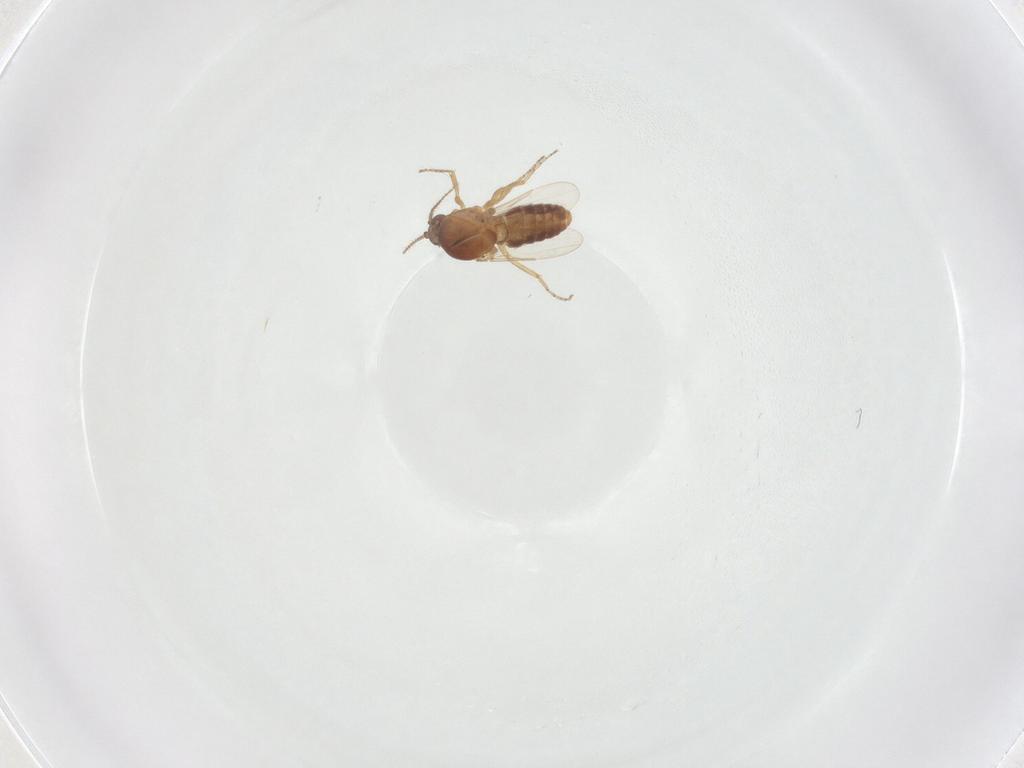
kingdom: Animalia
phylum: Arthropoda
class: Insecta
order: Diptera
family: Ceratopogonidae
